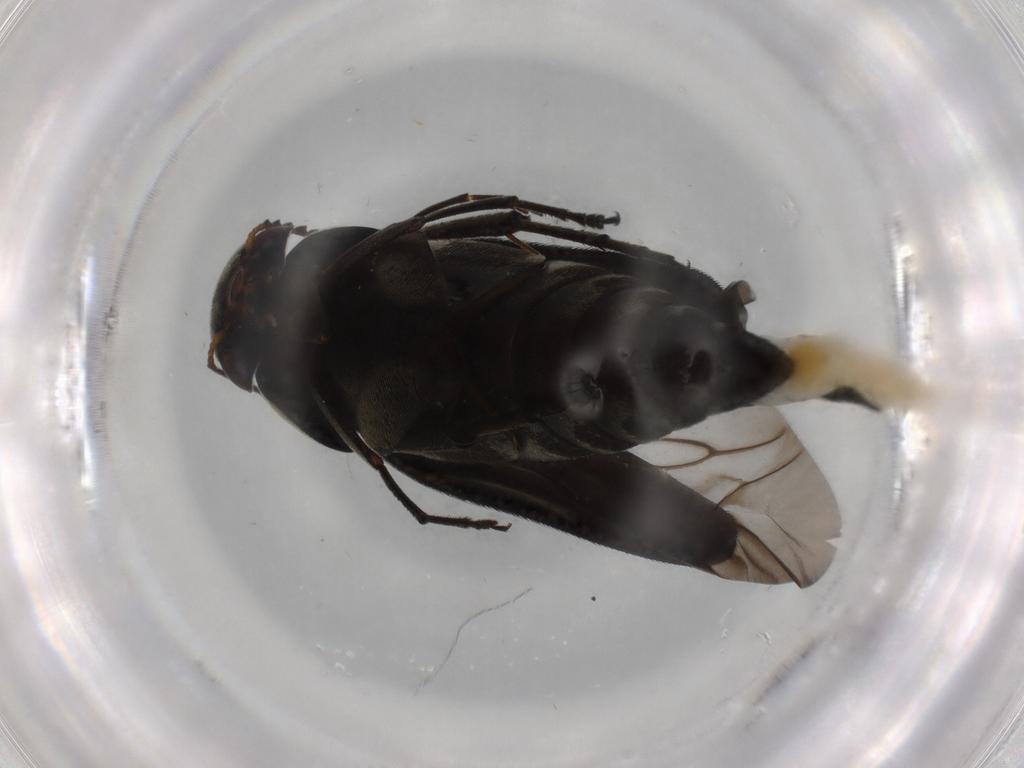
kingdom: Animalia
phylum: Arthropoda
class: Insecta
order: Coleoptera
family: Mordellidae
